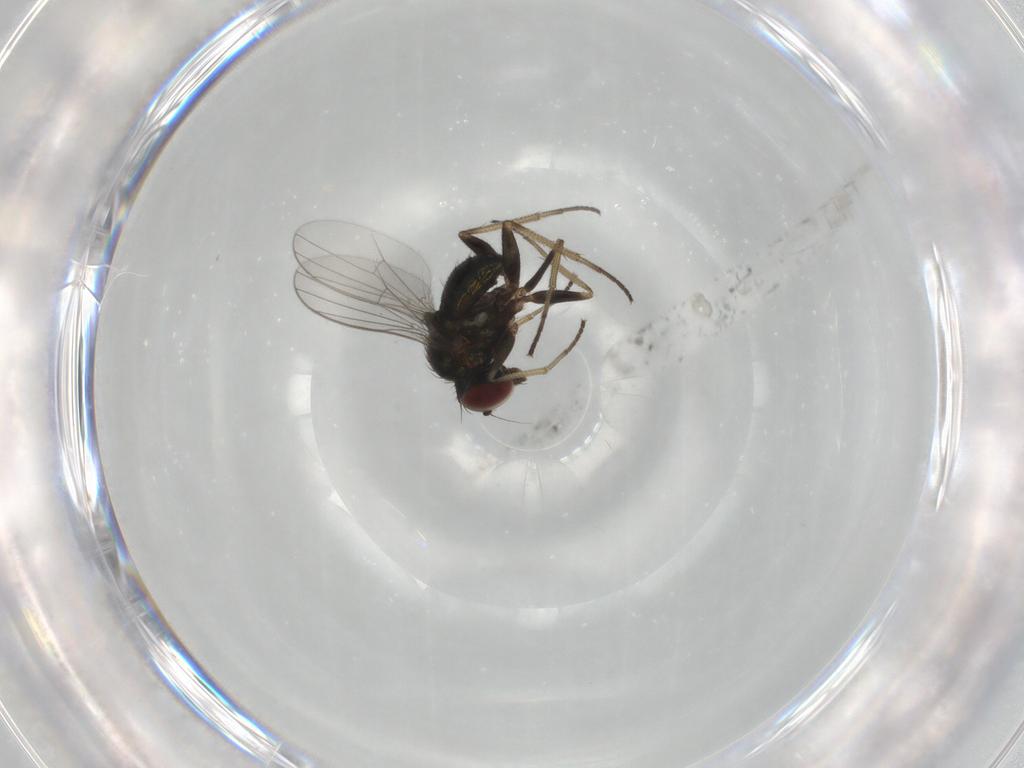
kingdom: Animalia
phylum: Arthropoda
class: Insecta
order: Diptera
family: Dolichopodidae
